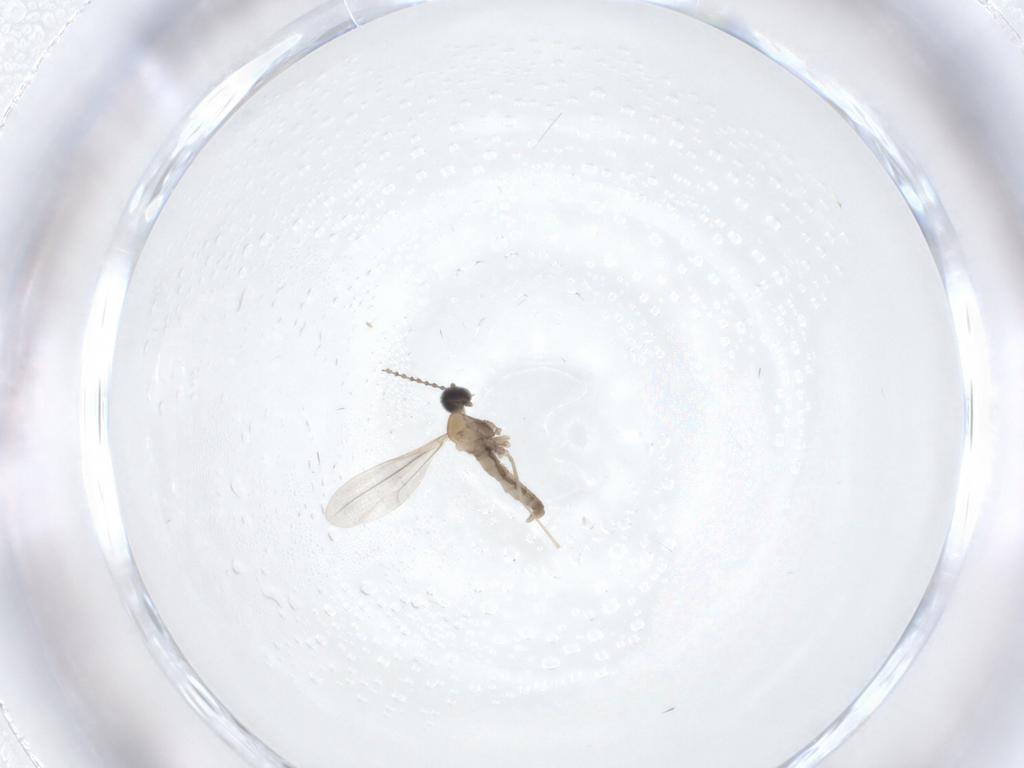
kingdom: Animalia
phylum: Arthropoda
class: Insecta
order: Diptera
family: Cecidomyiidae
